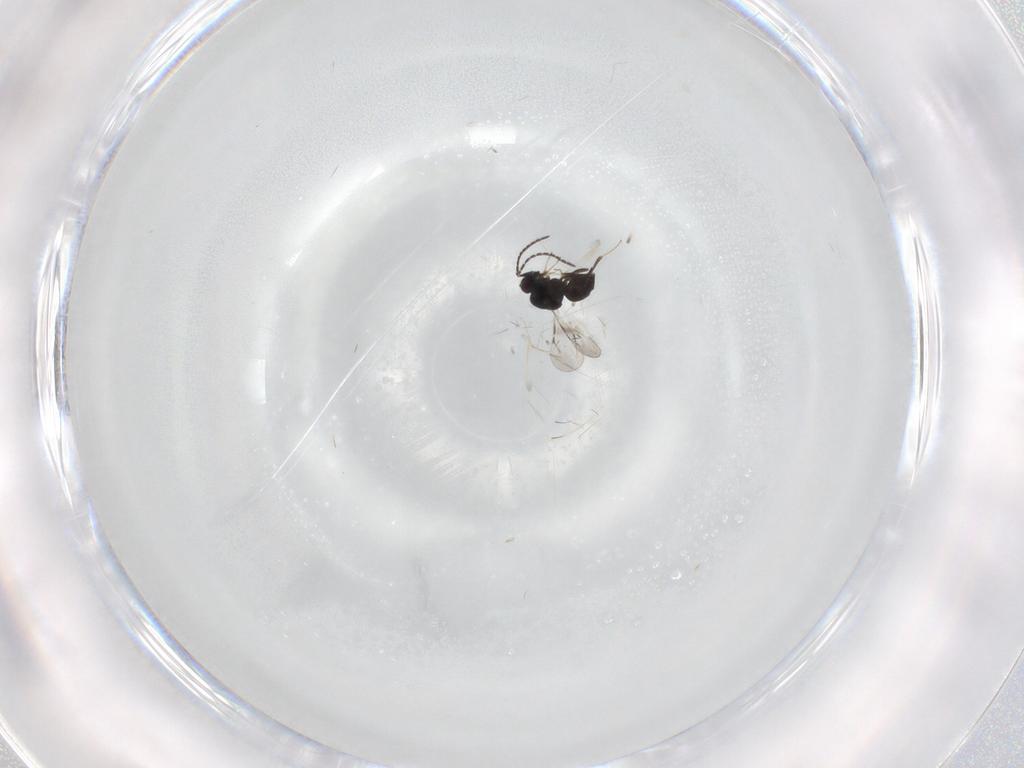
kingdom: Animalia
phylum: Arthropoda
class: Insecta
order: Hymenoptera
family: Ceraphronidae
